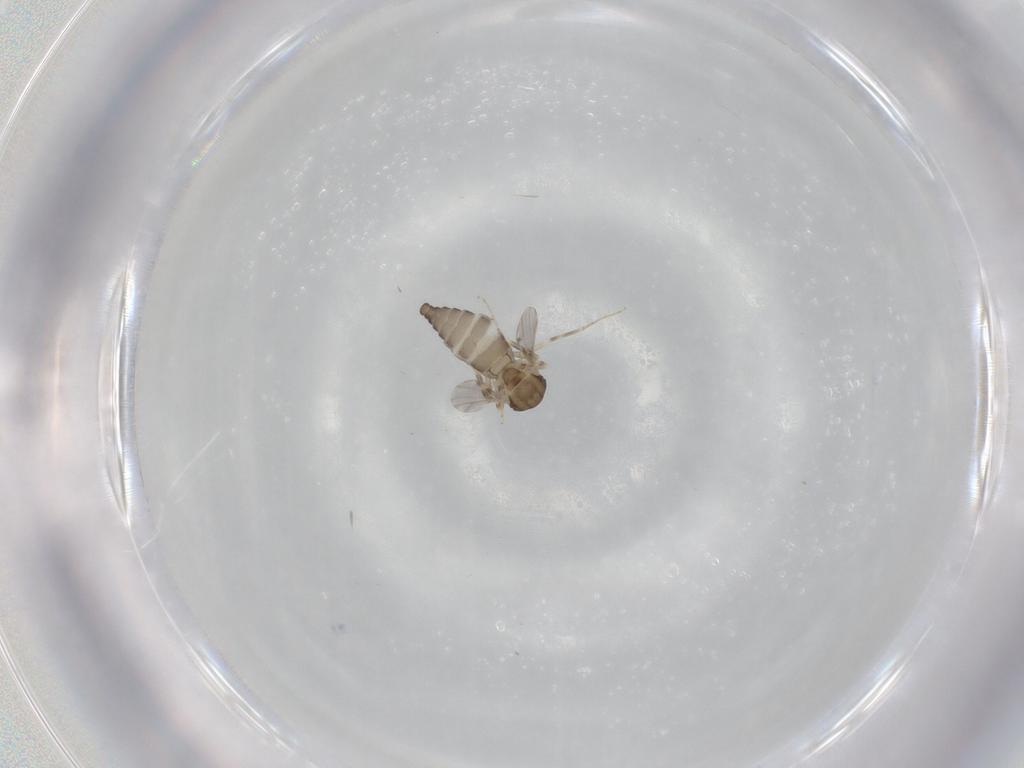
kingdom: Animalia
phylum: Arthropoda
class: Insecta
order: Diptera
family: Ceratopogonidae
